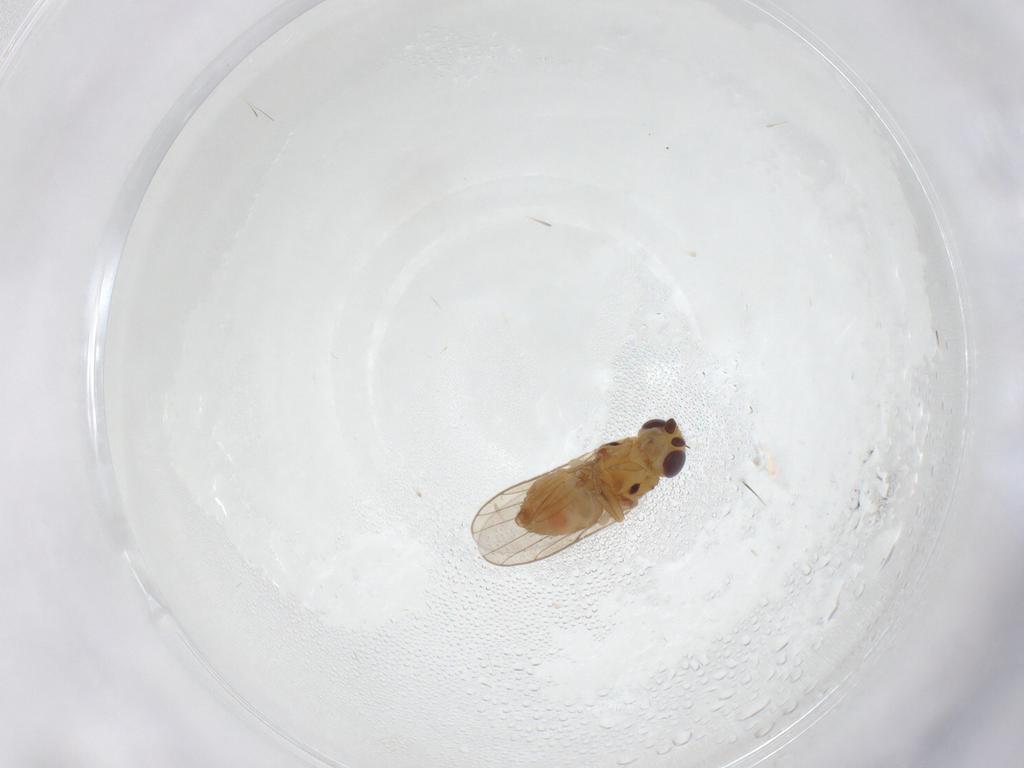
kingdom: Animalia
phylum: Arthropoda
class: Insecta
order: Diptera
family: Chloropidae
